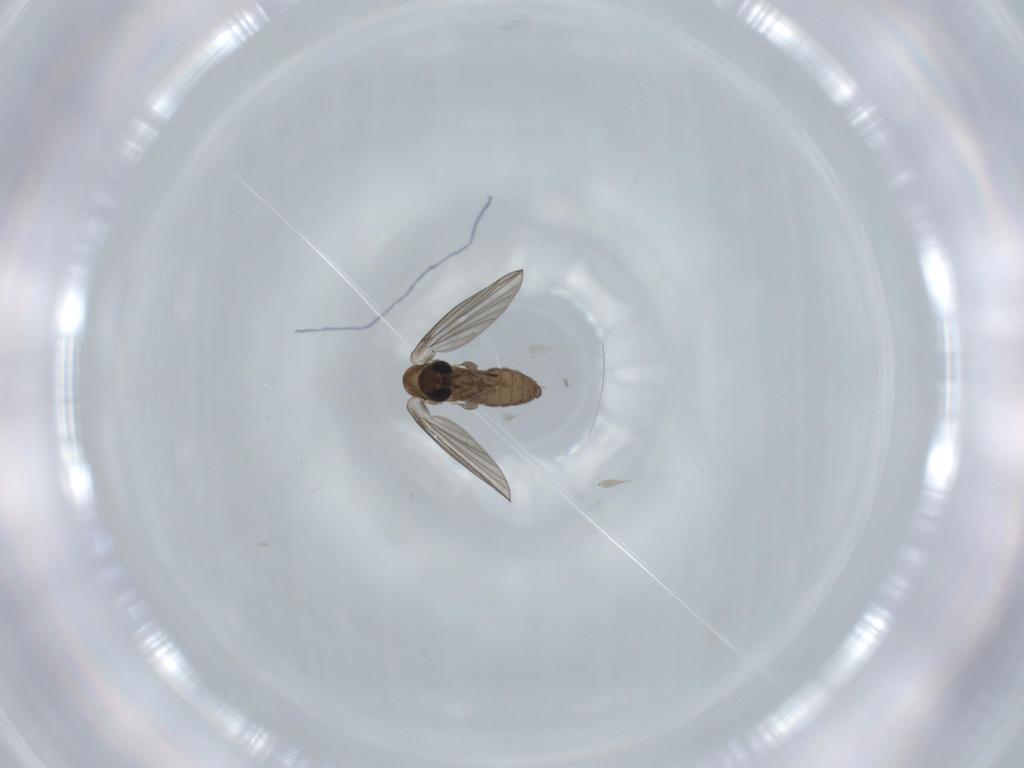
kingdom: Animalia
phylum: Arthropoda
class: Insecta
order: Diptera
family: Psychodidae
